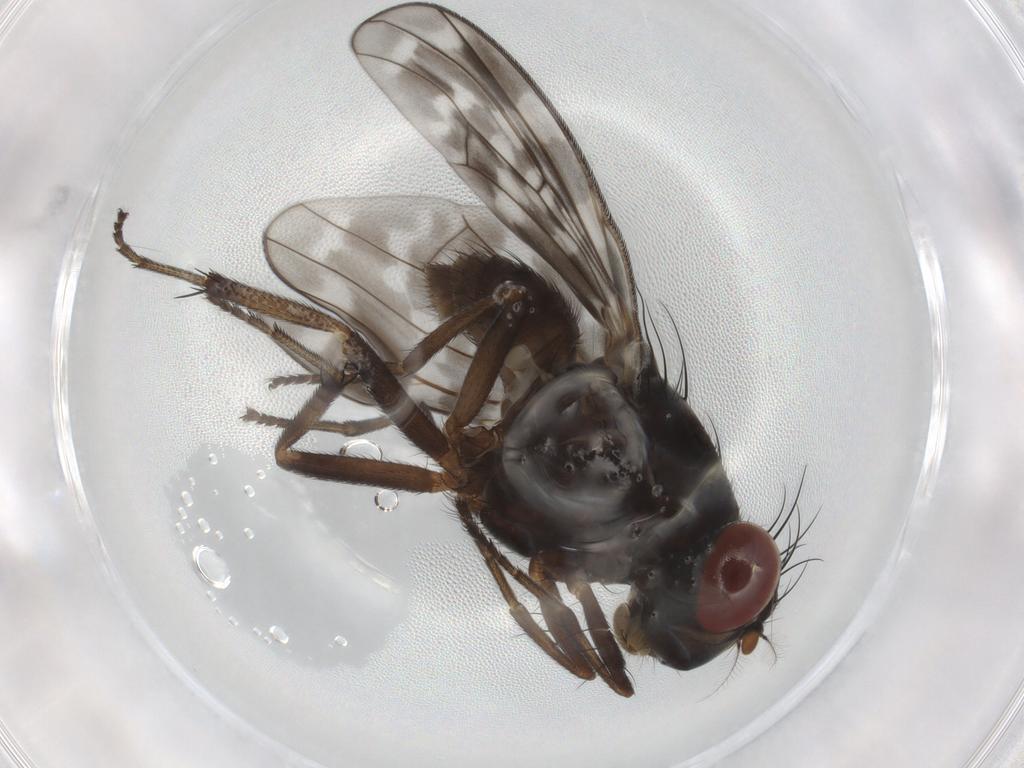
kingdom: Animalia
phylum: Arthropoda
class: Insecta
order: Diptera
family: Lauxaniidae
